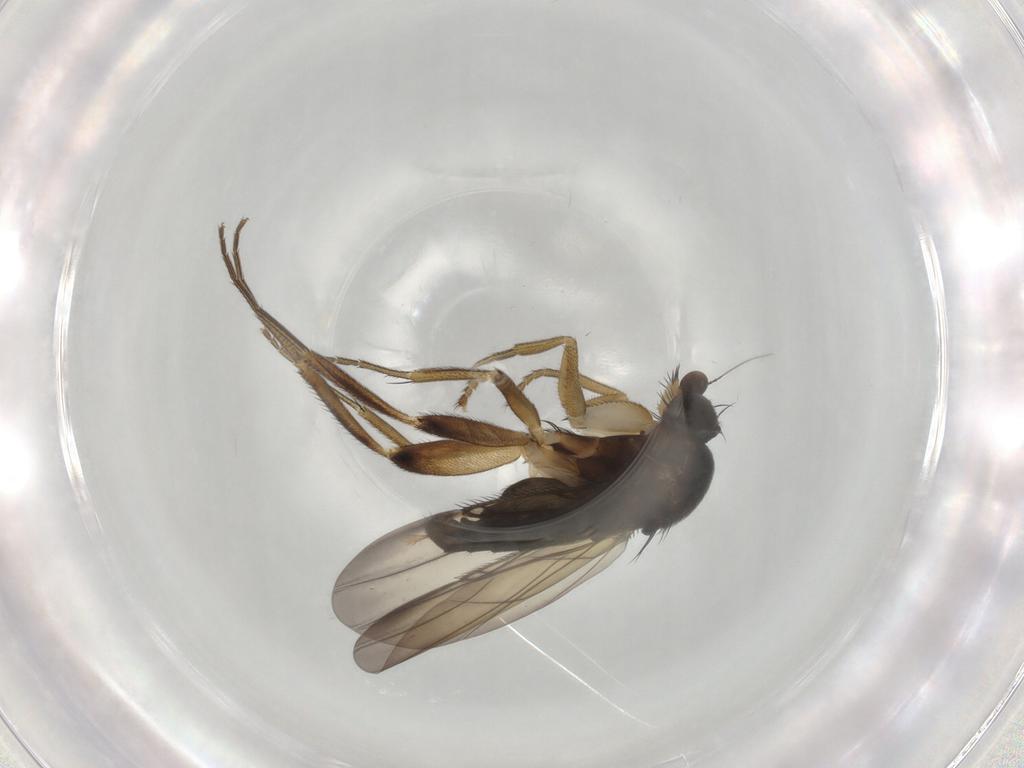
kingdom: Animalia
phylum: Arthropoda
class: Insecta
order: Diptera
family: Phoridae
